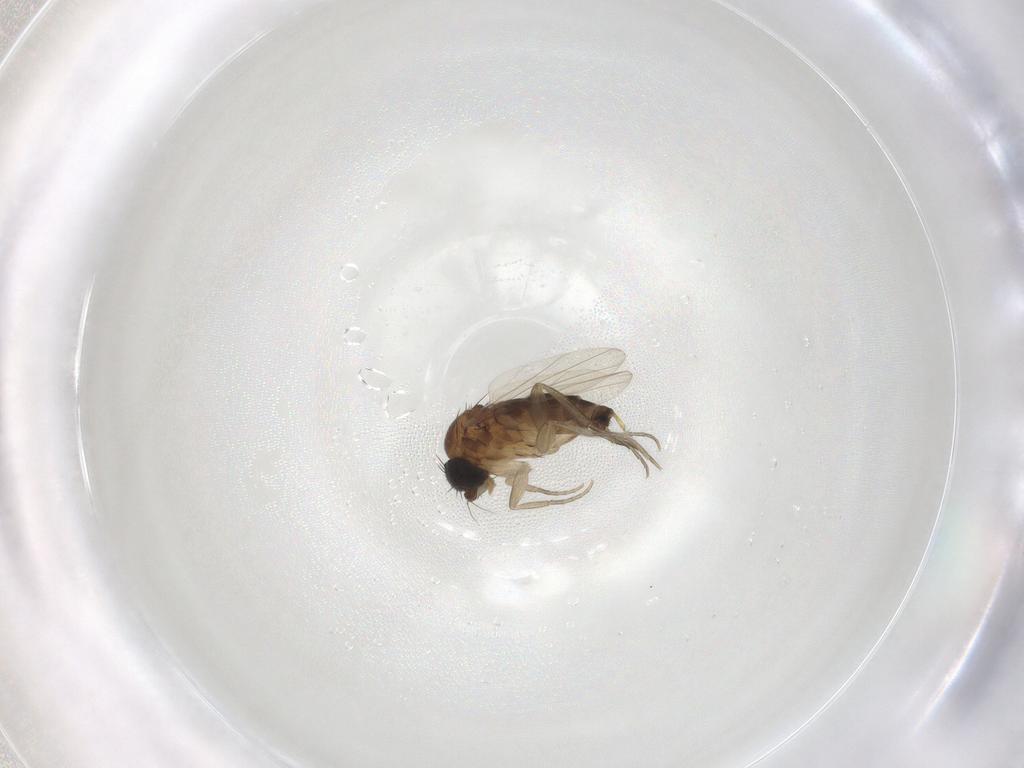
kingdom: Animalia
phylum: Arthropoda
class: Insecta
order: Diptera
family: Phoridae
